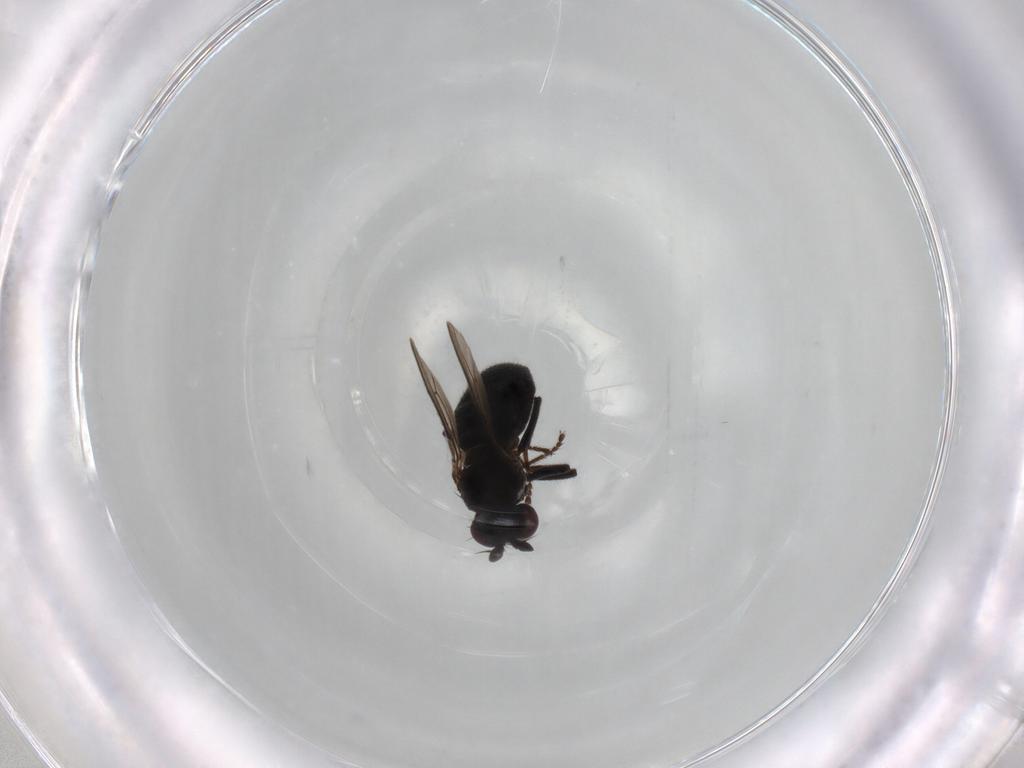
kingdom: Animalia
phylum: Arthropoda
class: Insecta
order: Diptera
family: Ephydridae
